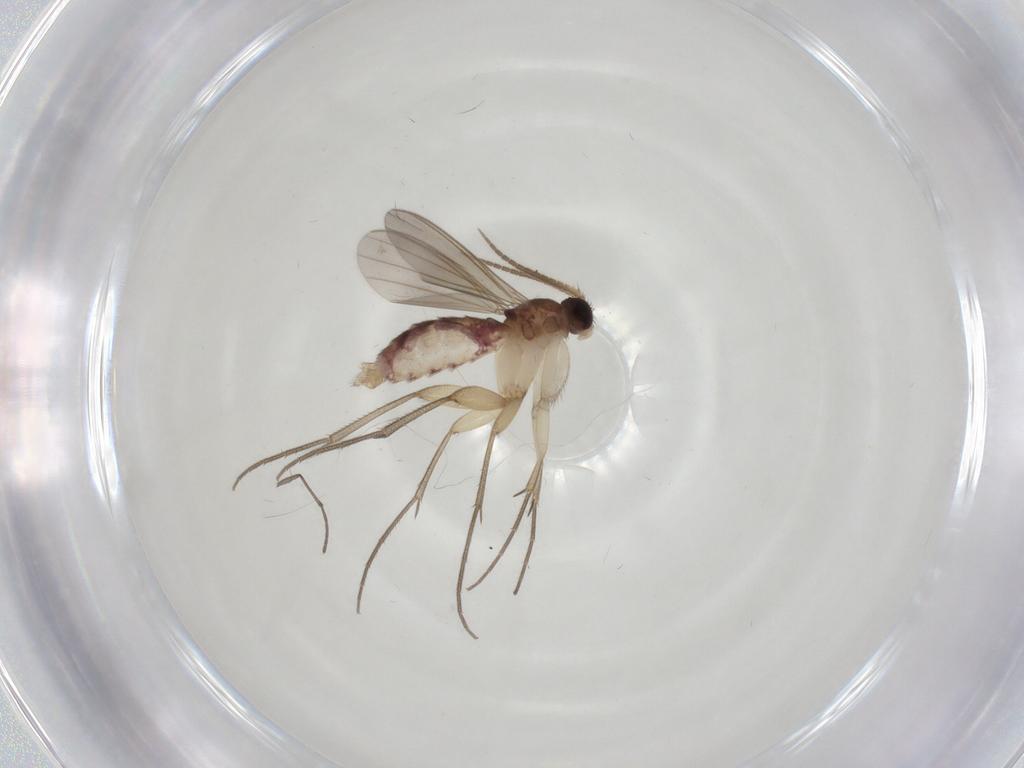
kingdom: Animalia
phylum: Arthropoda
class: Insecta
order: Diptera
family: Mycetophilidae
